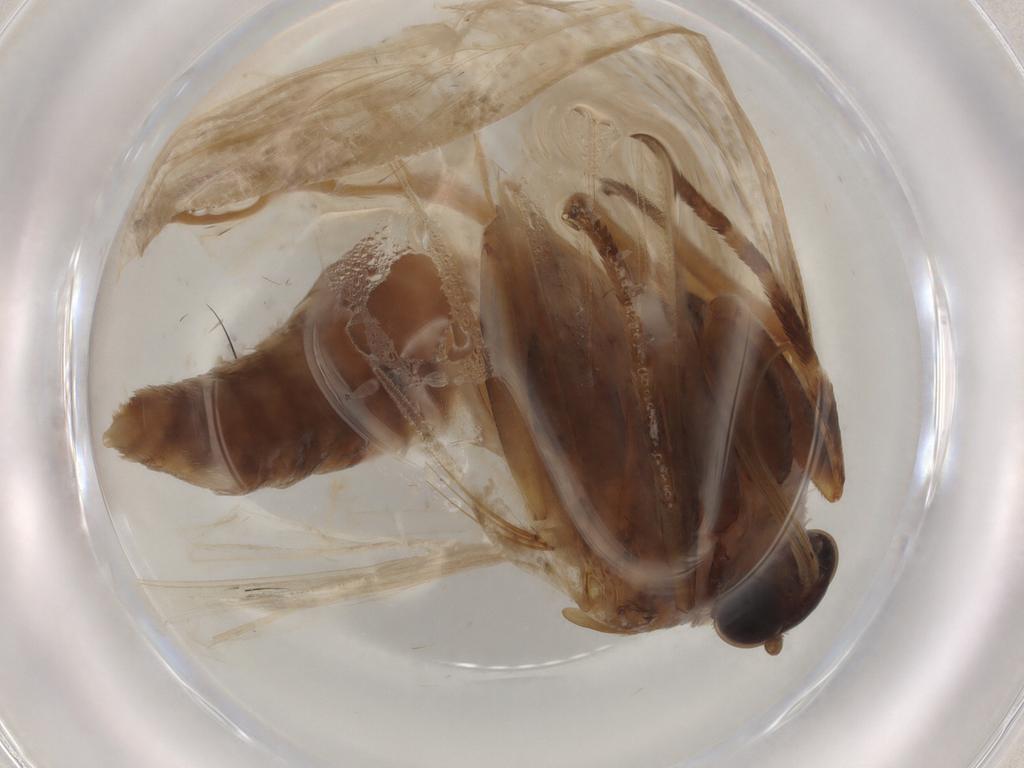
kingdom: Animalia
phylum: Arthropoda
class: Insecta
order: Lepidoptera
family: Crambidae
